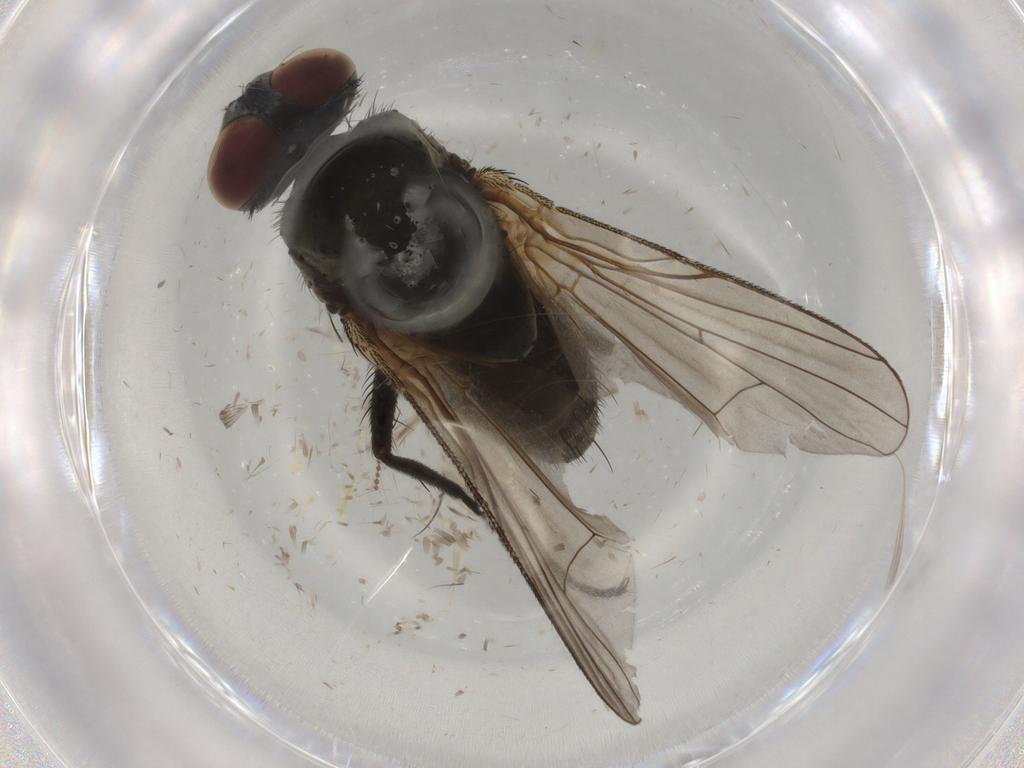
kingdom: Animalia
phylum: Arthropoda
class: Insecta
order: Diptera
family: Muscidae
